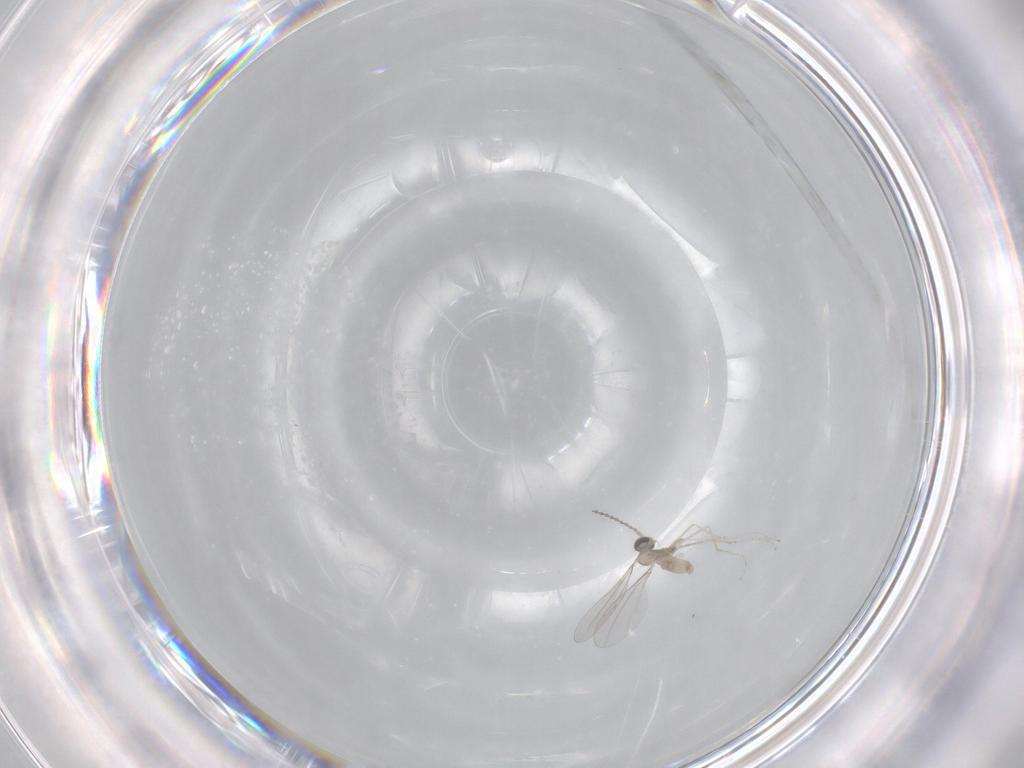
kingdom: Animalia
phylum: Arthropoda
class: Insecta
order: Diptera
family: Cecidomyiidae
